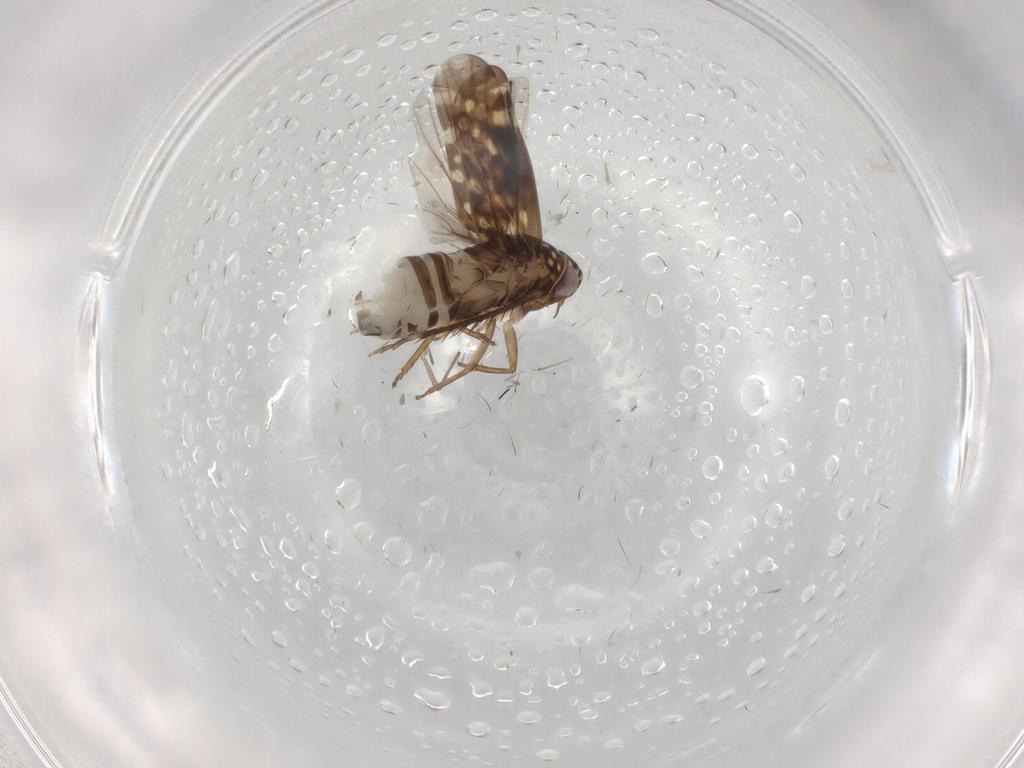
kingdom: Animalia
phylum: Arthropoda
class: Insecta
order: Hemiptera
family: Cicadellidae
